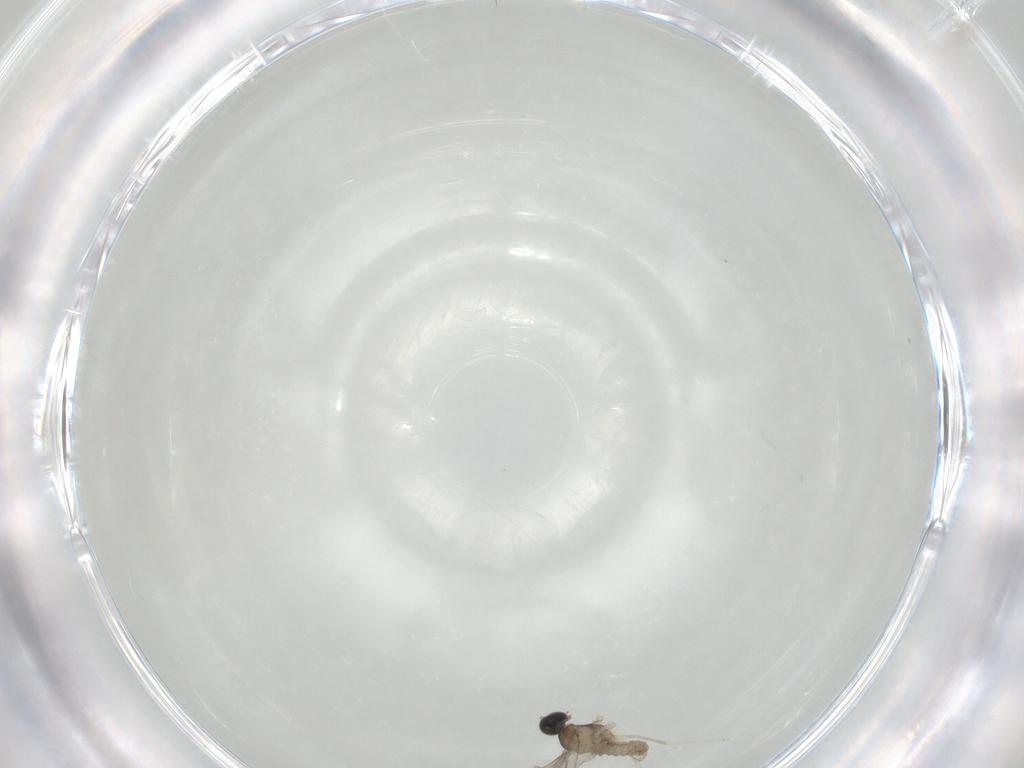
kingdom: Animalia
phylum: Arthropoda
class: Insecta
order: Diptera
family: Cecidomyiidae
